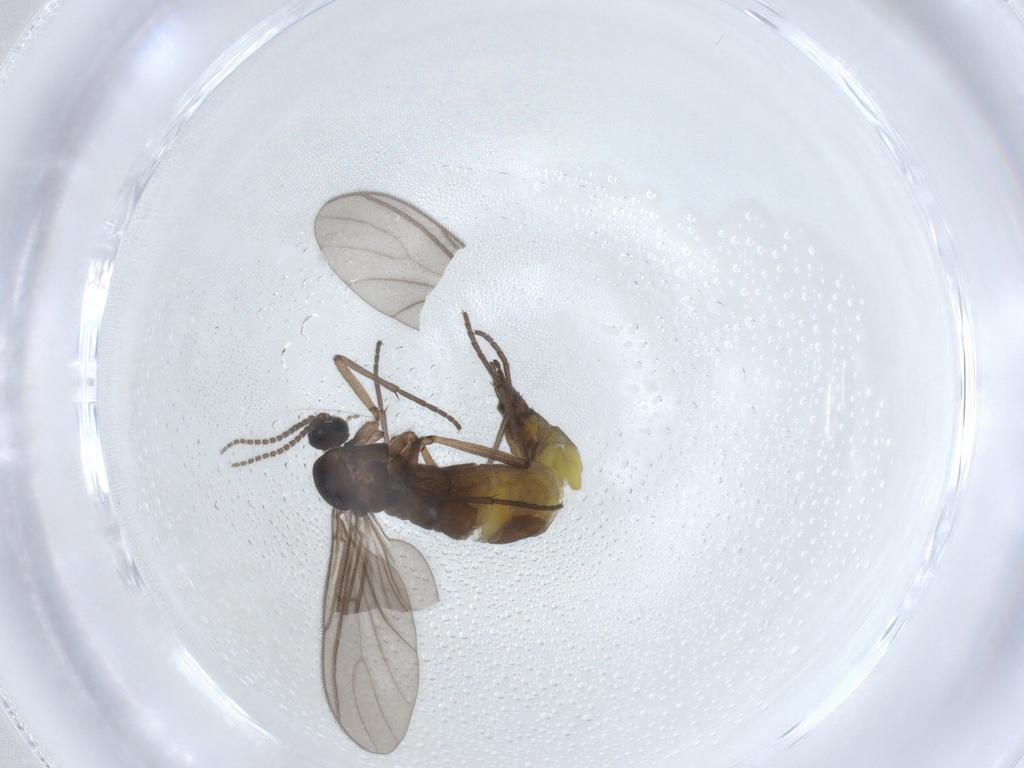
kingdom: Animalia
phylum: Arthropoda
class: Insecta
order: Diptera
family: Sciaridae
